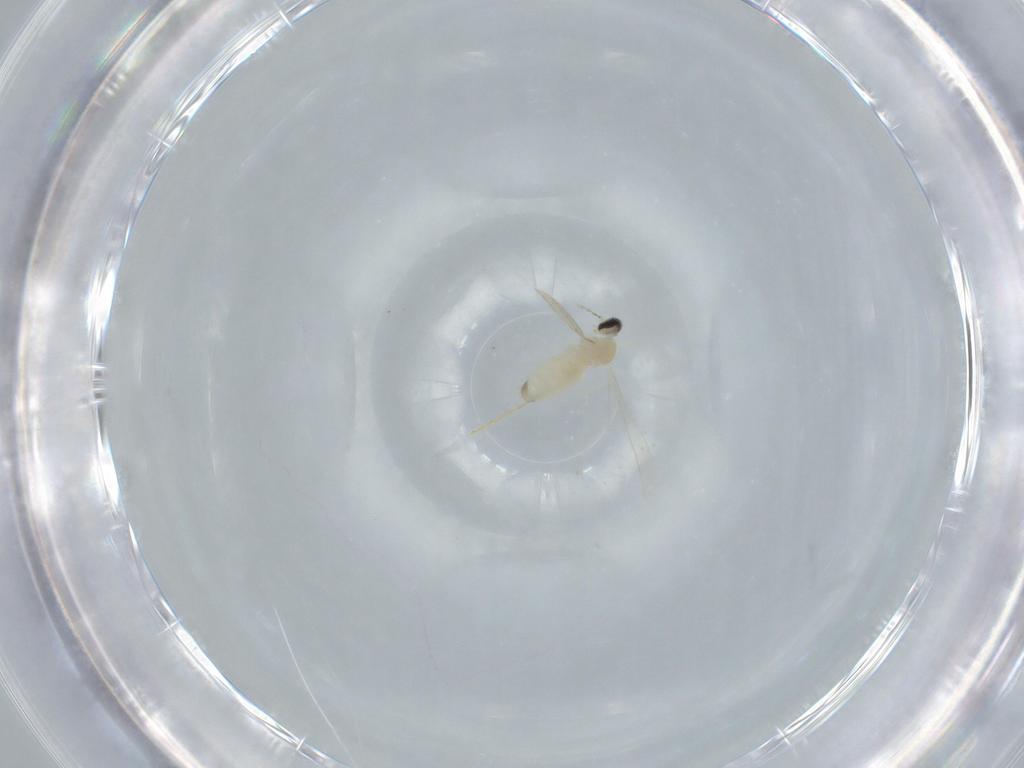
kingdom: Animalia
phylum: Arthropoda
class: Insecta
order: Diptera
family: Cecidomyiidae
